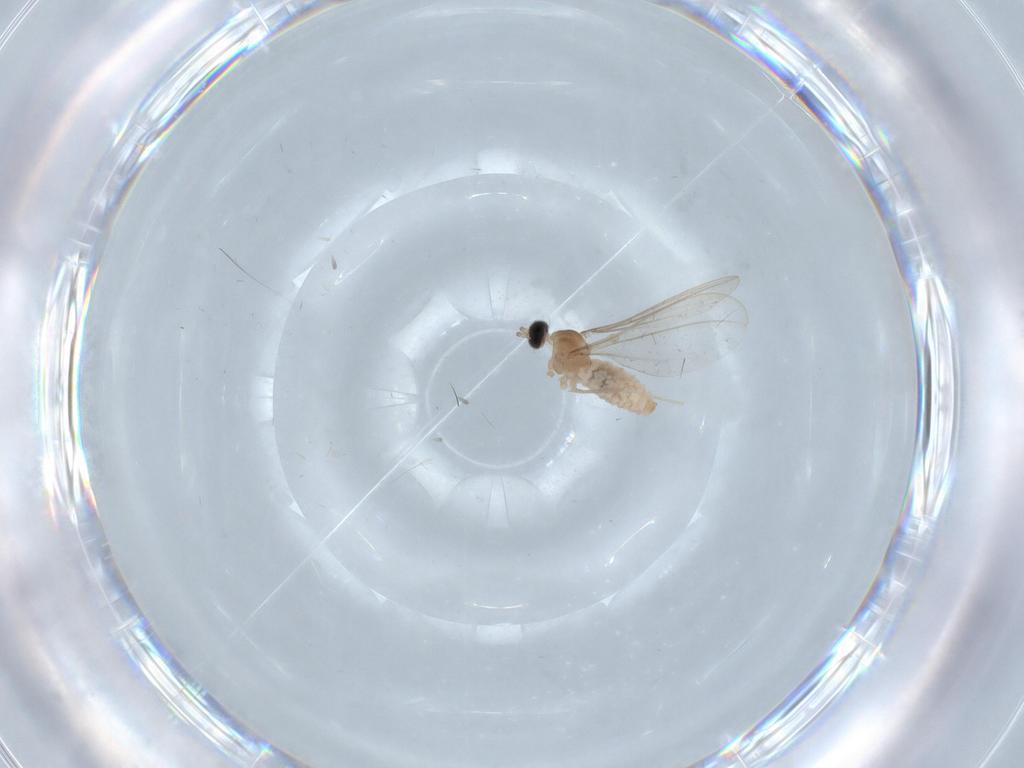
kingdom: Animalia
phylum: Arthropoda
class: Insecta
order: Diptera
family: Cecidomyiidae
